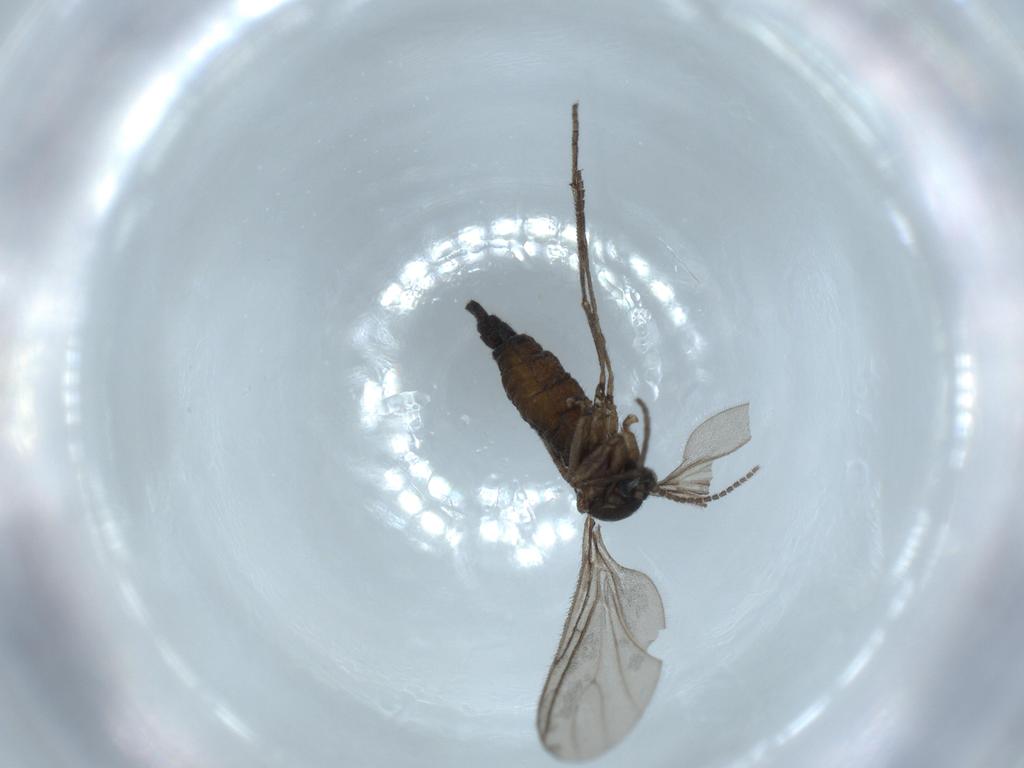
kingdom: Animalia
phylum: Arthropoda
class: Insecta
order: Diptera
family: Sciaridae
